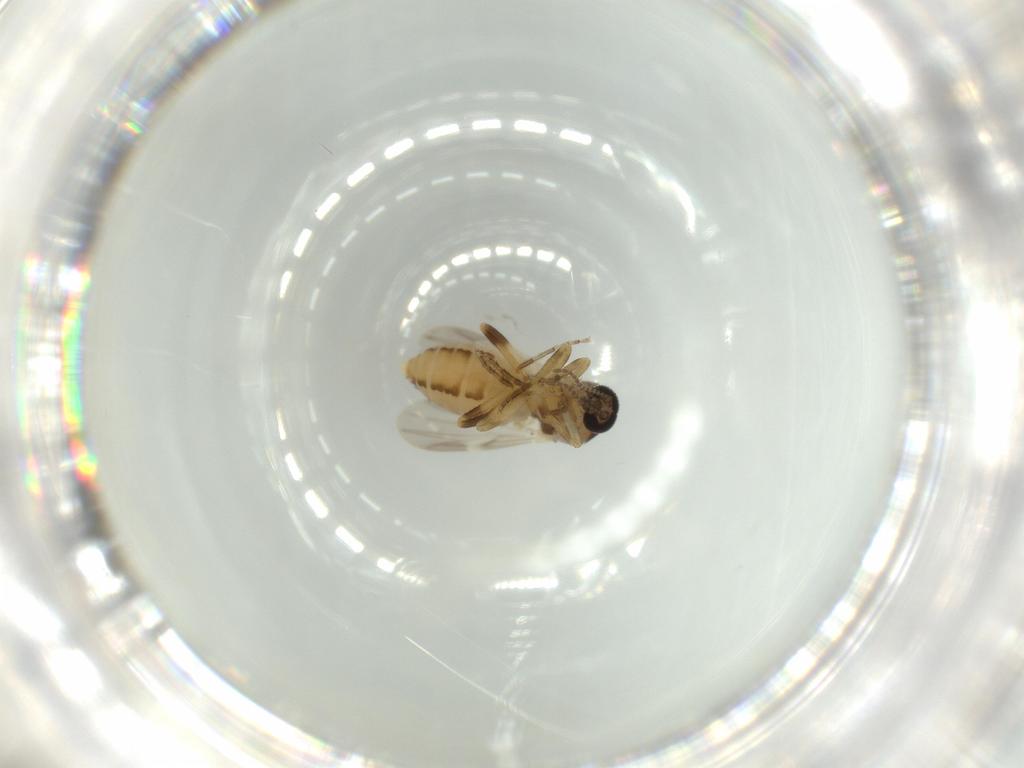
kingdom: Animalia
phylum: Arthropoda
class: Insecta
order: Diptera
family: Ceratopogonidae
